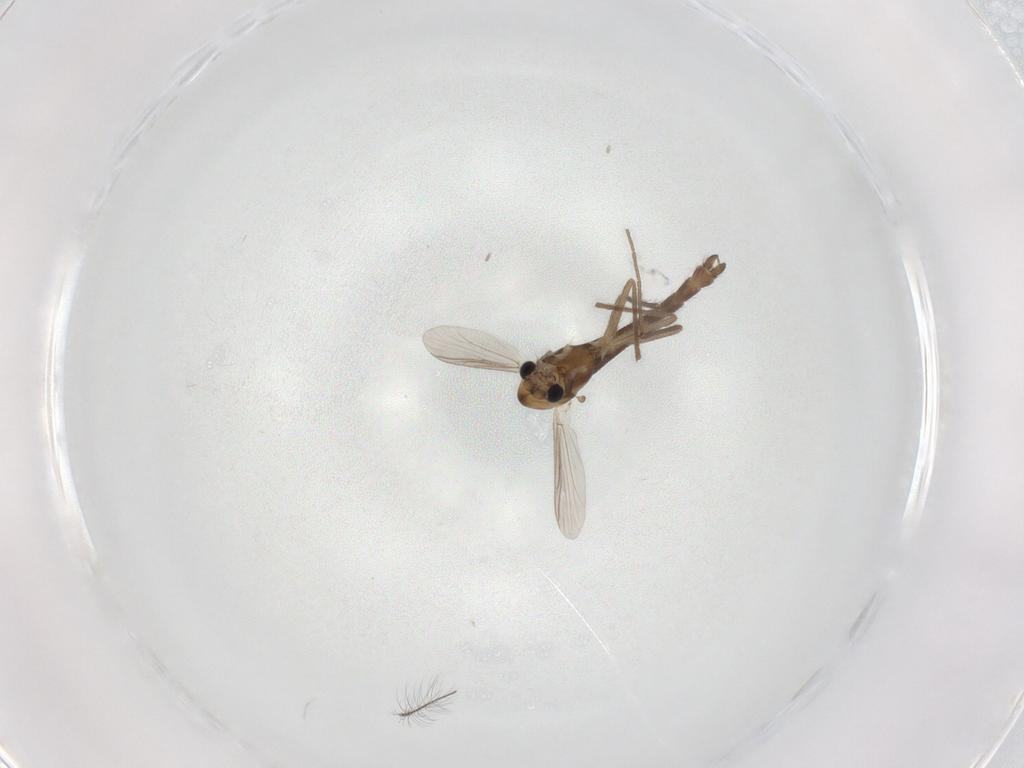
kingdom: Animalia
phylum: Arthropoda
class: Insecta
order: Diptera
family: Chironomidae
